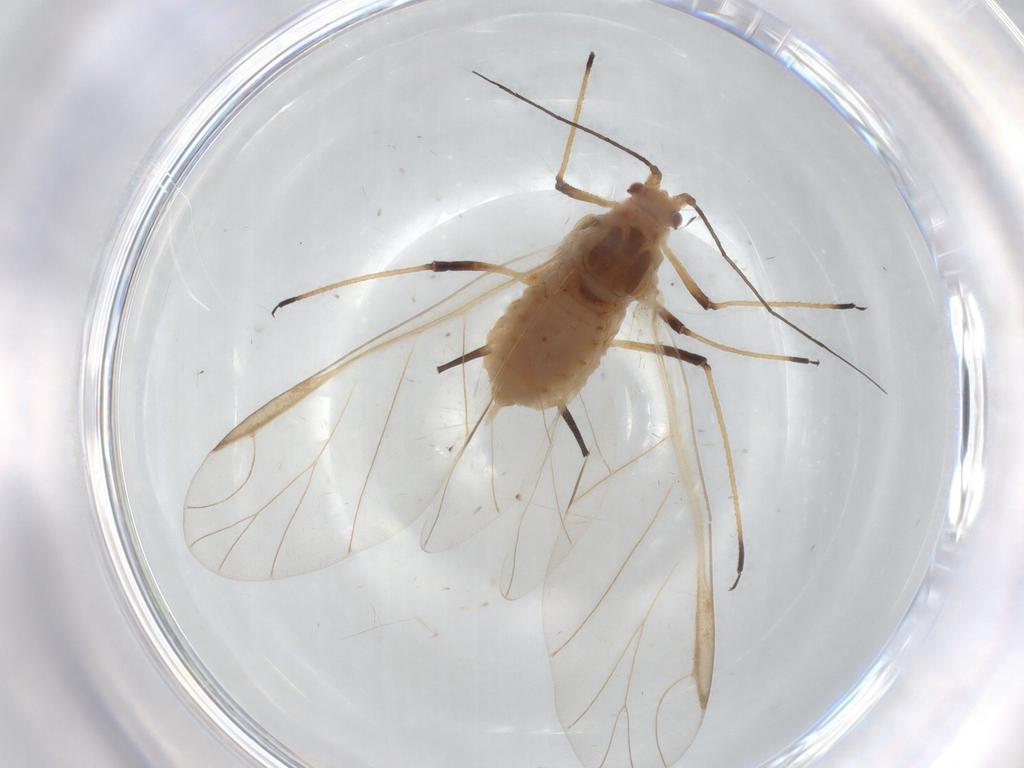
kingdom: Animalia
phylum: Arthropoda
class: Insecta
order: Hemiptera
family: Aphididae
